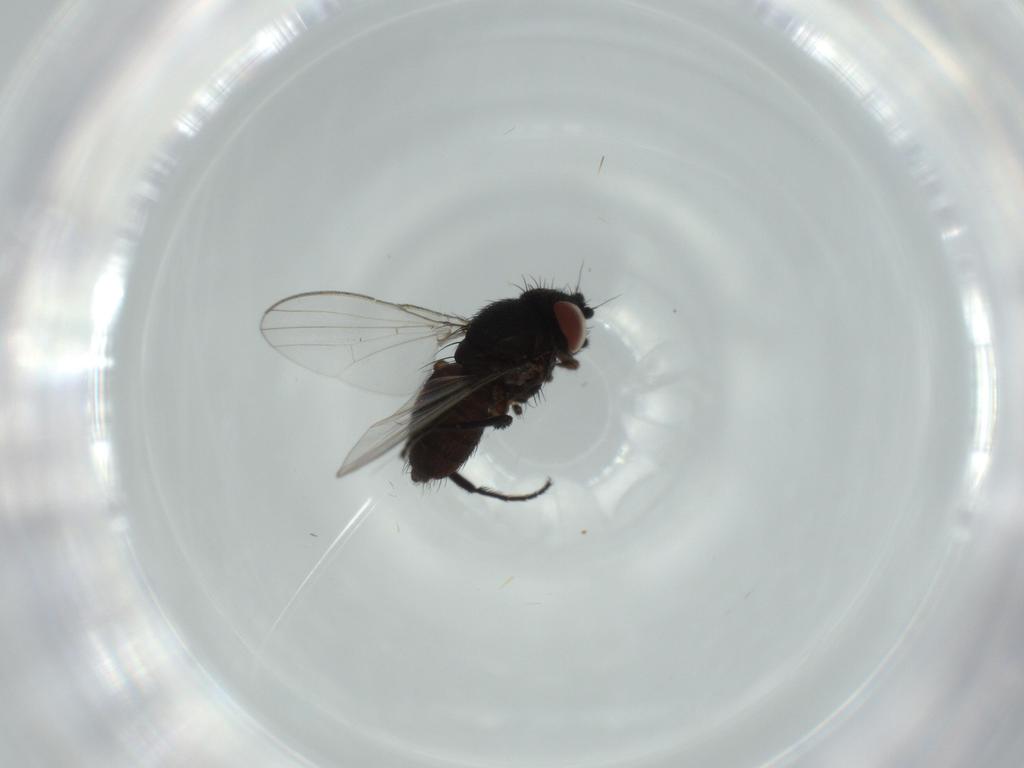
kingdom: Animalia
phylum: Arthropoda
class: Insecta
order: Diptera
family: Milichiidae
